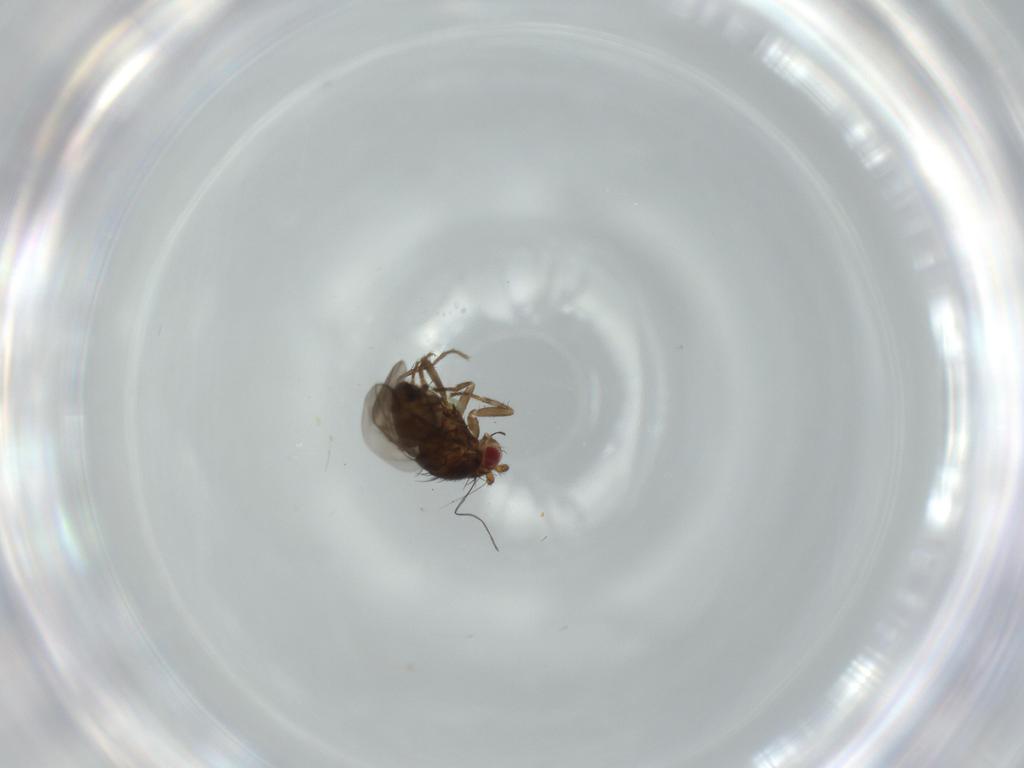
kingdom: Animalia
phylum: Arthropoda
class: Insecta
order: Diptera
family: Sphaeroceridae
